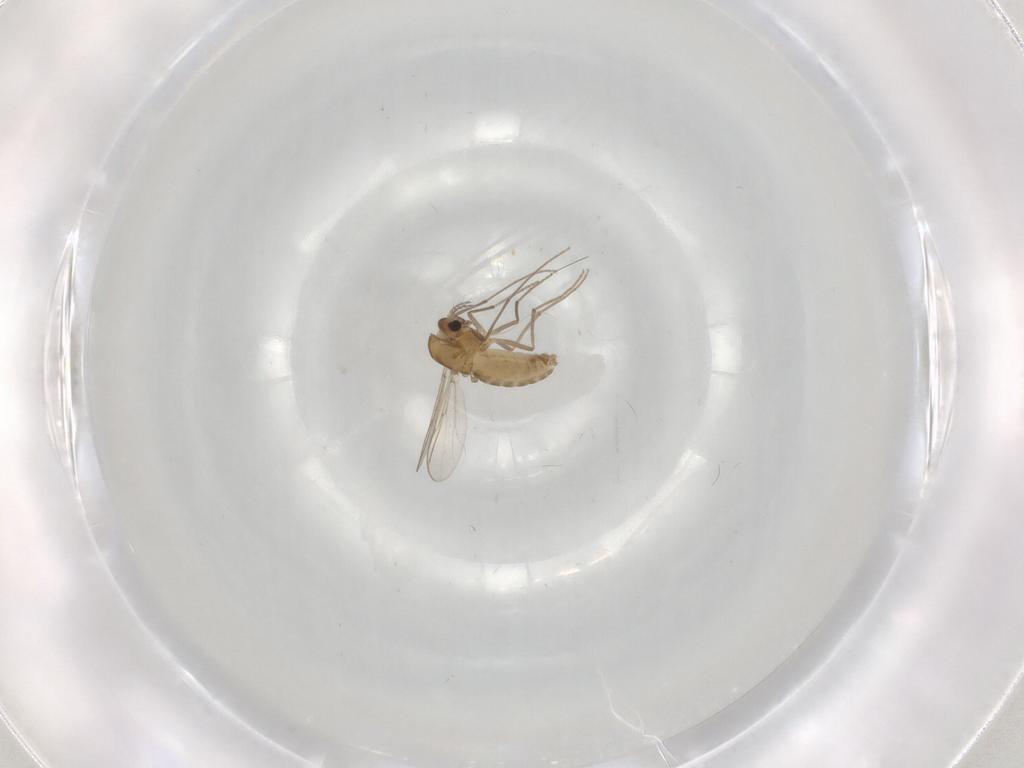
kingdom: Animalia
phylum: Arthropoda
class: Insecta
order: Diptera
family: Chironomidae
